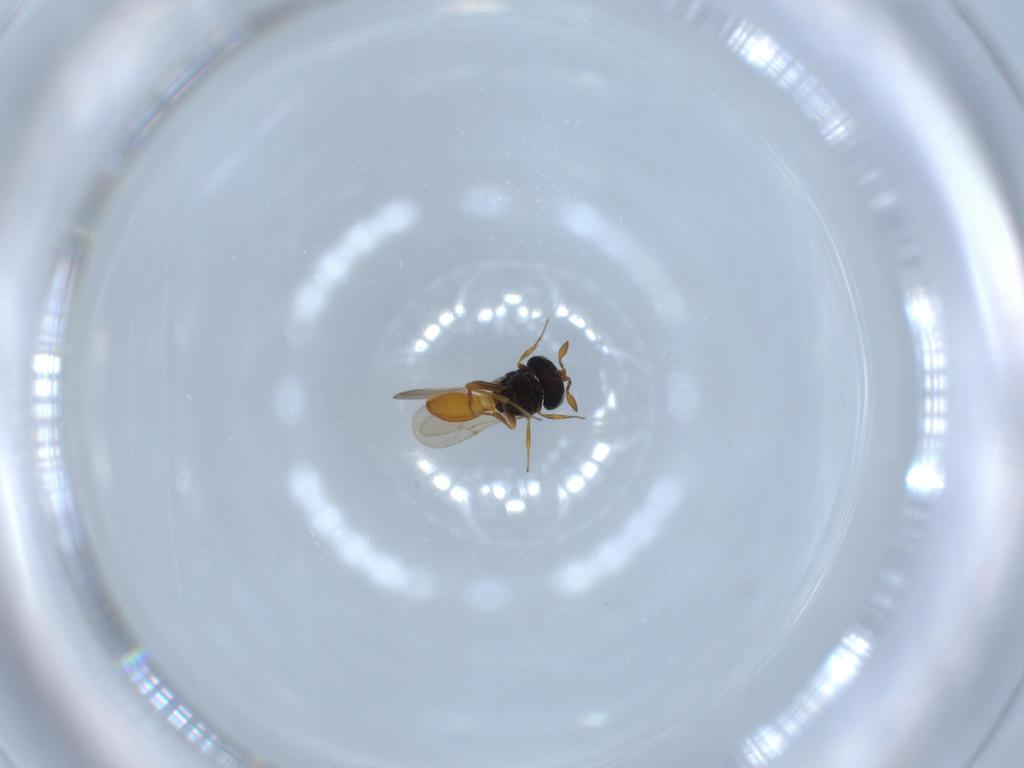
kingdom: Animalia
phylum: Arthropoda
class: Insecta
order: Hymenoptera
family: Scelionidae
